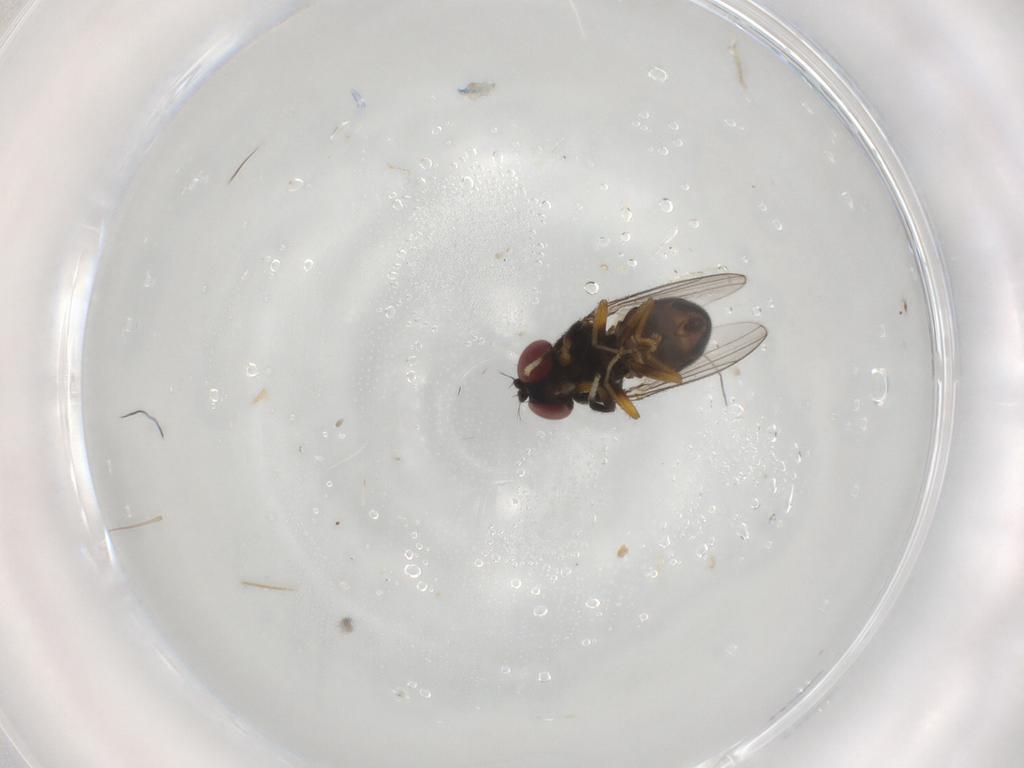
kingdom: Animalia
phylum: Arthropoda
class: Insecta
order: Diptera
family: Ephydridae
